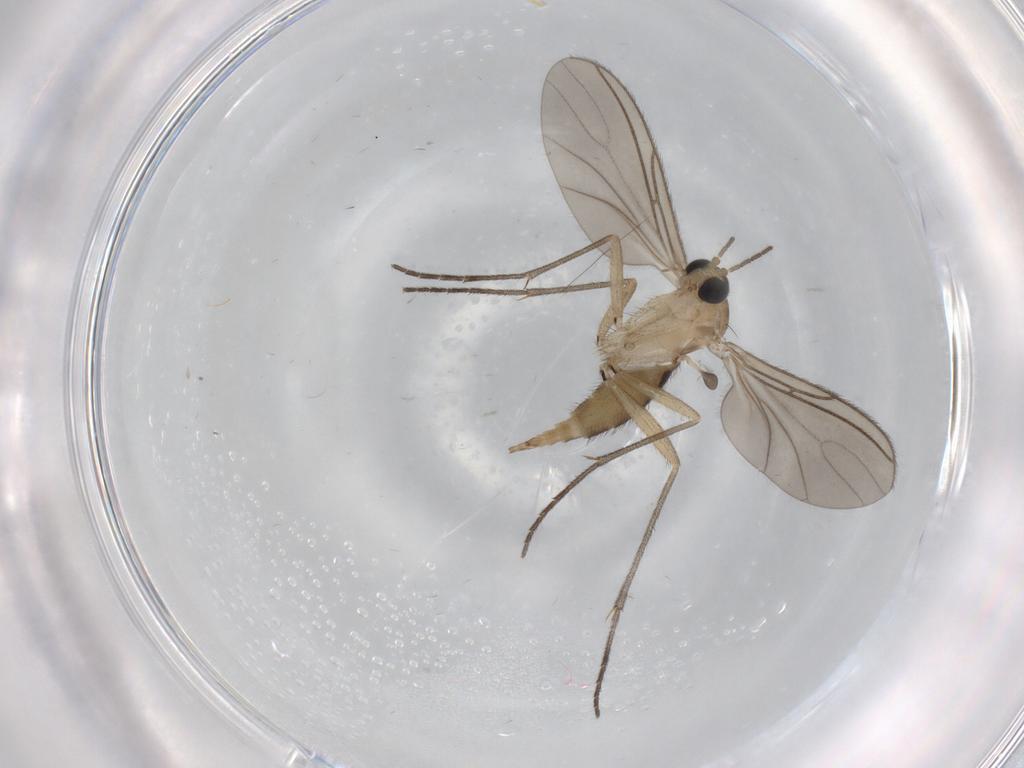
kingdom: Animalia
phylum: Arthropoda
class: Insecta
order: Diptera
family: Sciaridae
